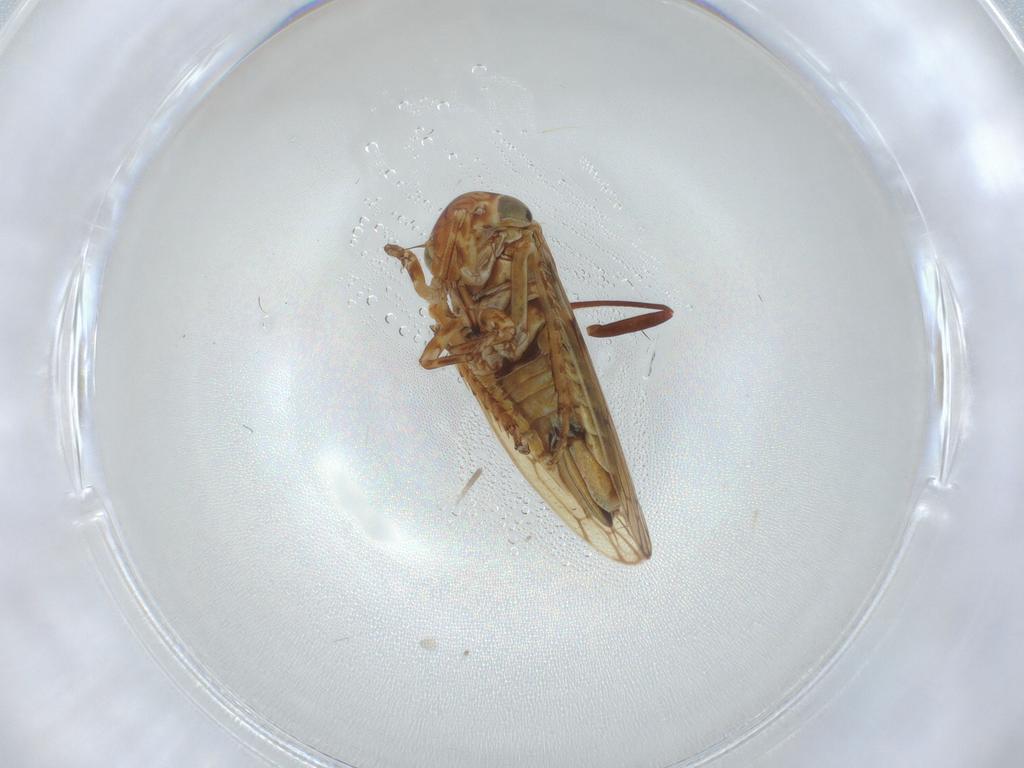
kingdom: Animalia
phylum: Arthropoda
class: Insecta
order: Hemiptera
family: Cicadellidae
